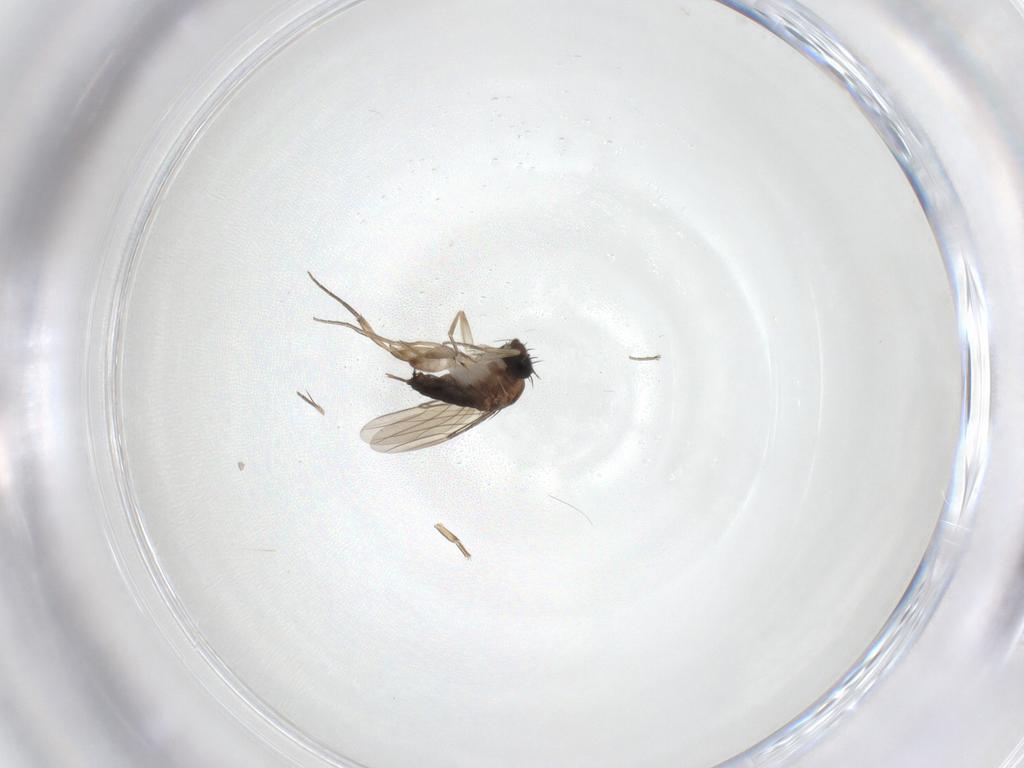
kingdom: Animalia
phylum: Arthropoda
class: Insecta
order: Diptera
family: Phoridae
